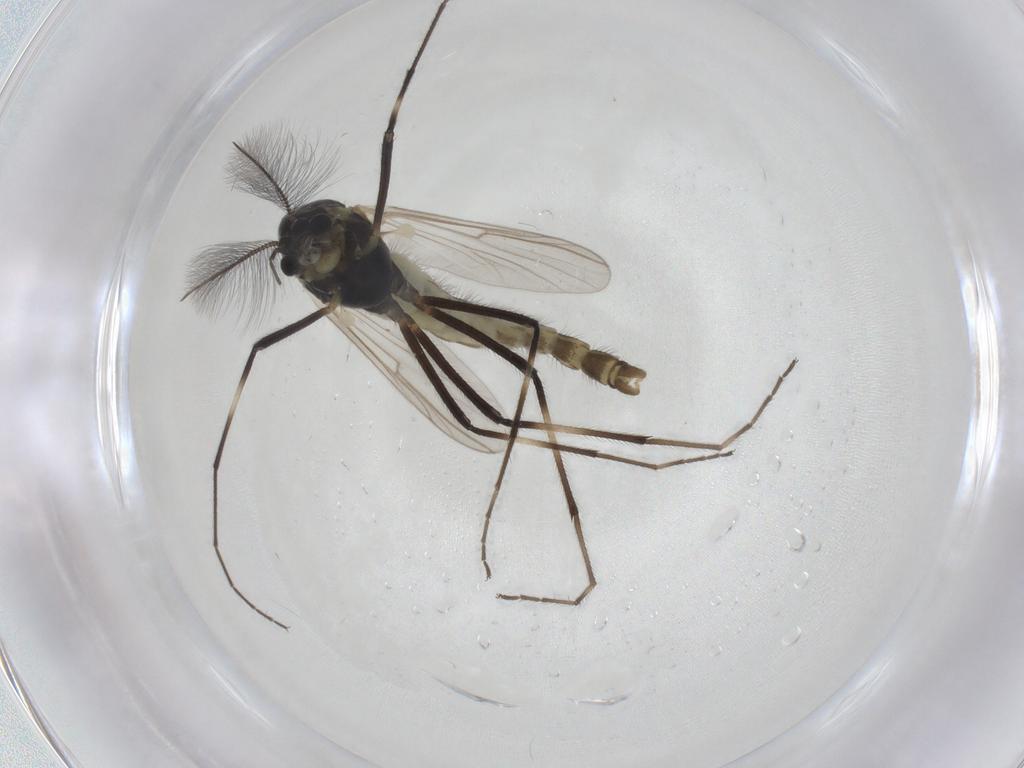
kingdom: Animalia
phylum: Arthropoda
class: Insecta
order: Diptera
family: Chironomidae
